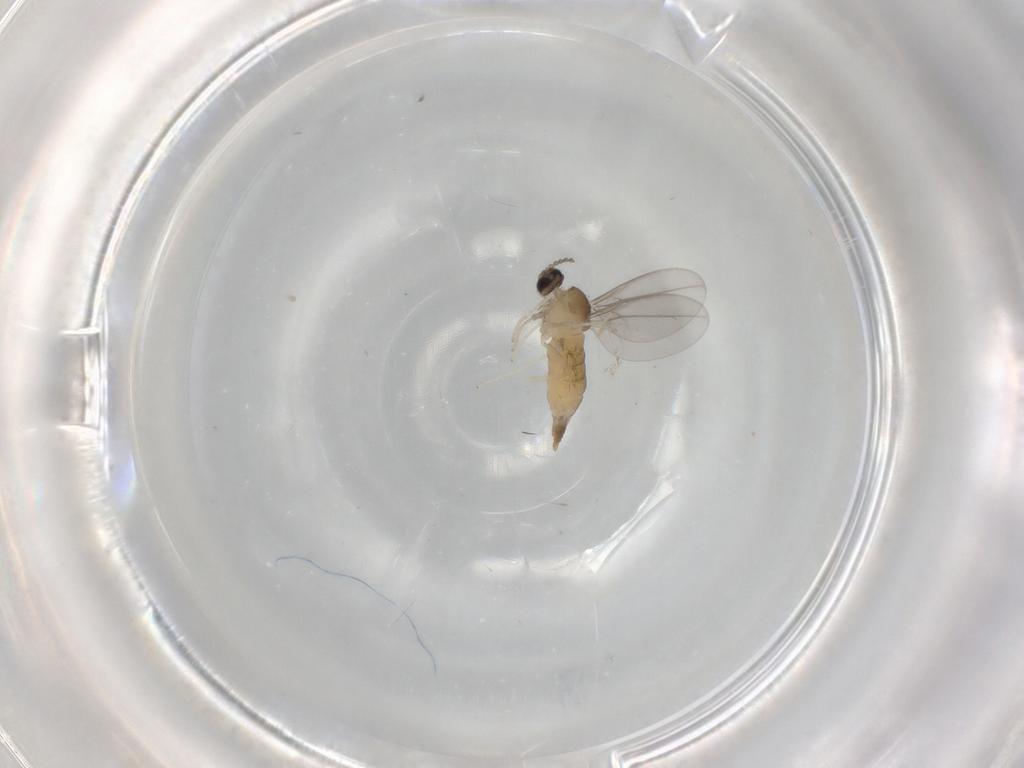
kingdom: Animalia
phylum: Arthropoda
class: Insecta
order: Diptera
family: Cecidomyiidae
